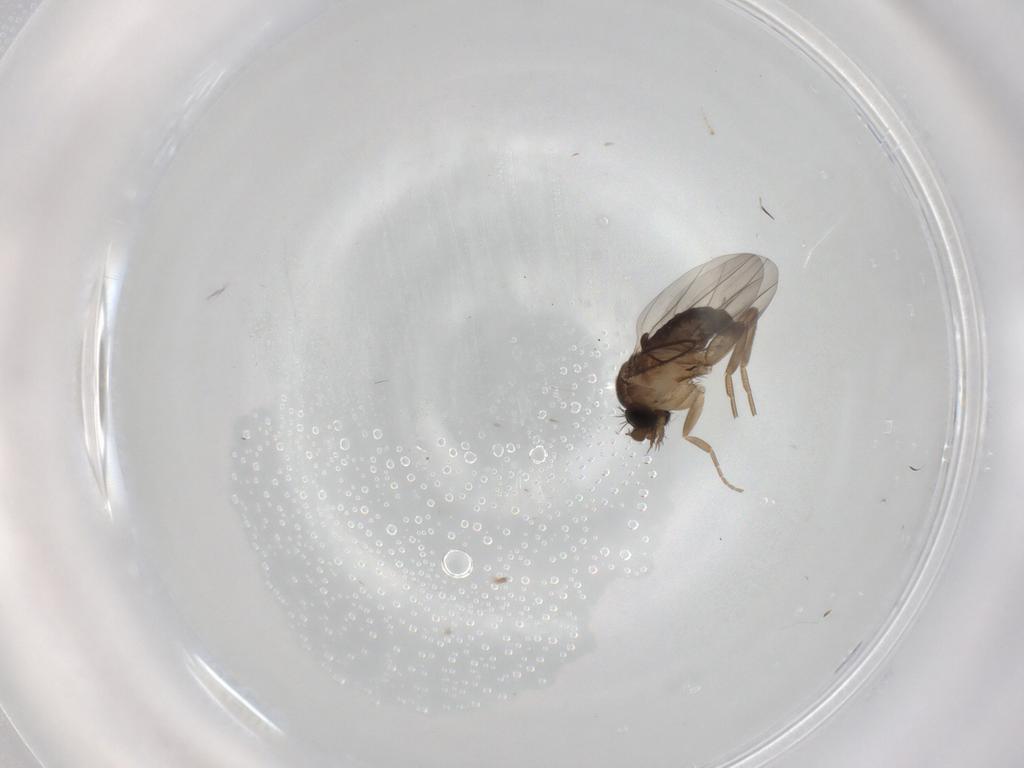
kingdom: Animalia
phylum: Arthropoda
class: Insecta
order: Diptera
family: Phoridae
